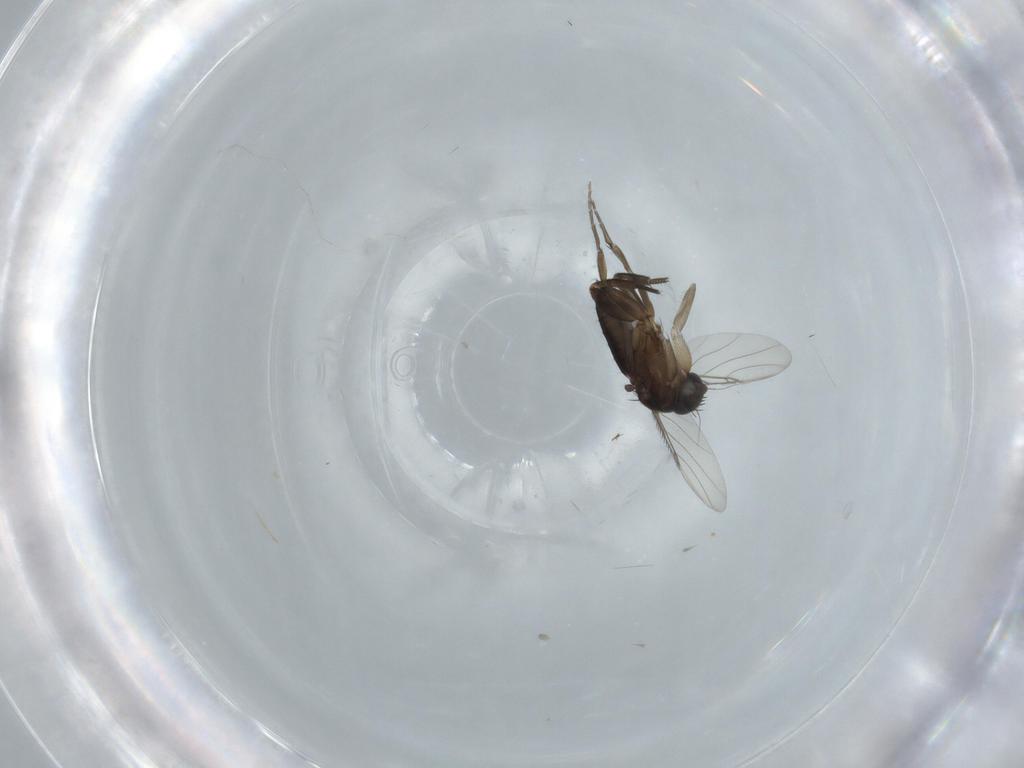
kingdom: Animalia
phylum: Arthropoda
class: Insecta
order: Diptera
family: Phoridae
